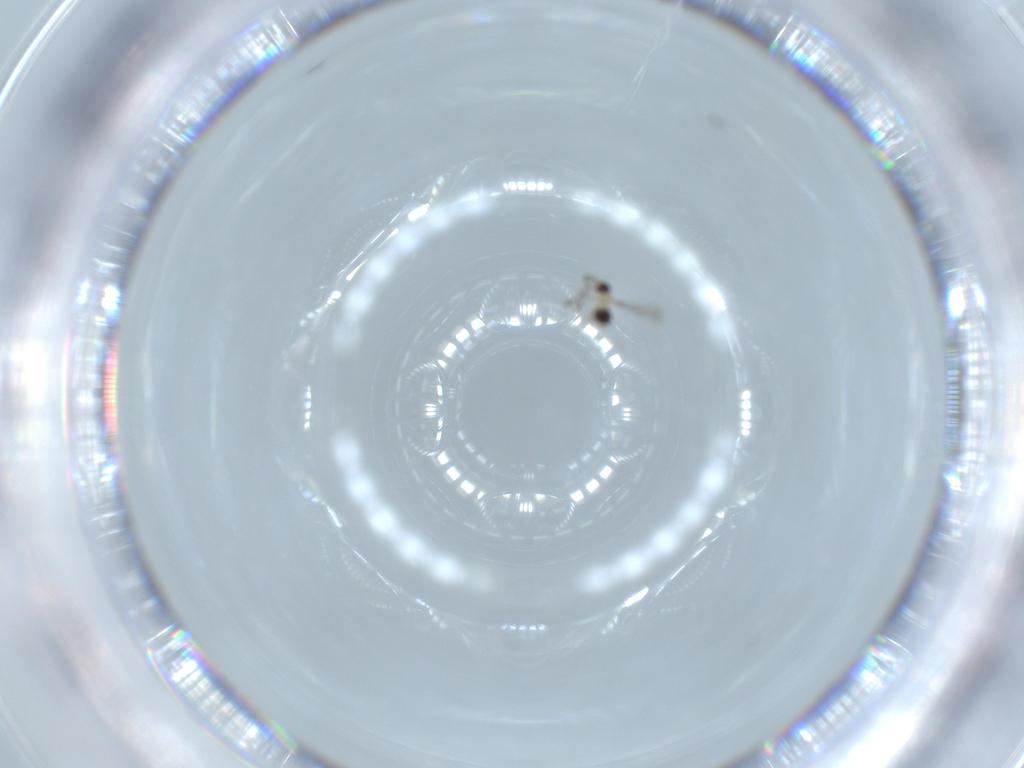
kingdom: Animalia
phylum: Arthropoda
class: Insecta
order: Hymenoptera
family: Mymaridae
